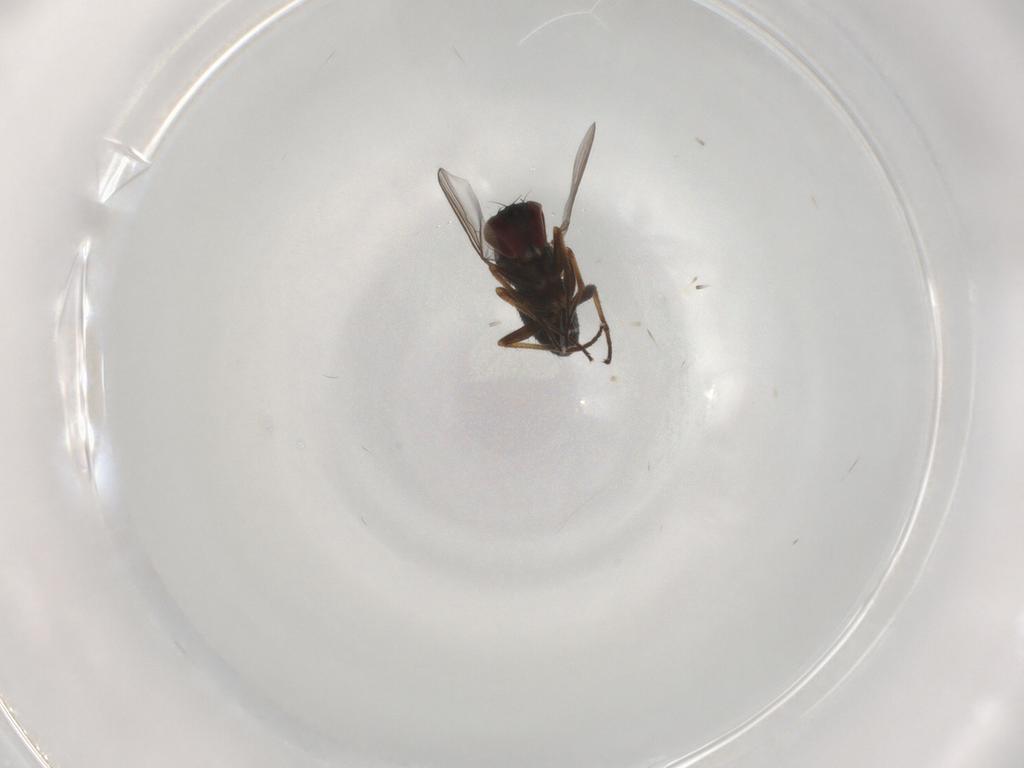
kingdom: Animalia
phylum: Arthropoda
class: Insecta
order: Diptera
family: Dolichopodidae
